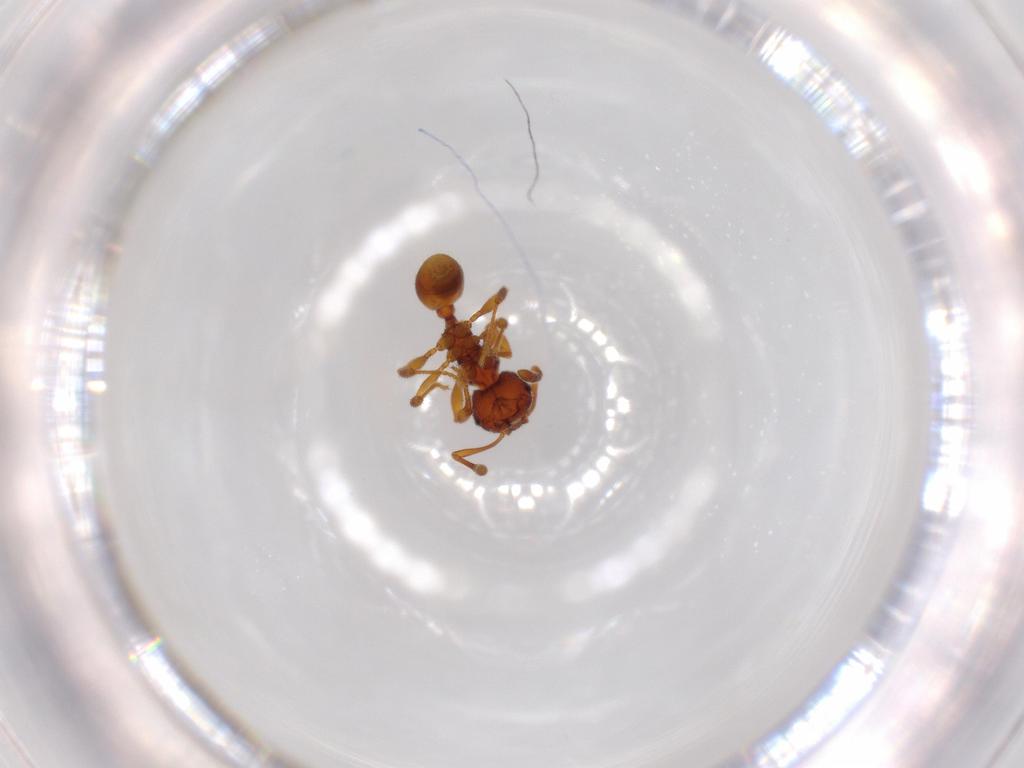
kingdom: Animalia
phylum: Arthropoda
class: Insecta
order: Hymenoptera
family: Formicidae
